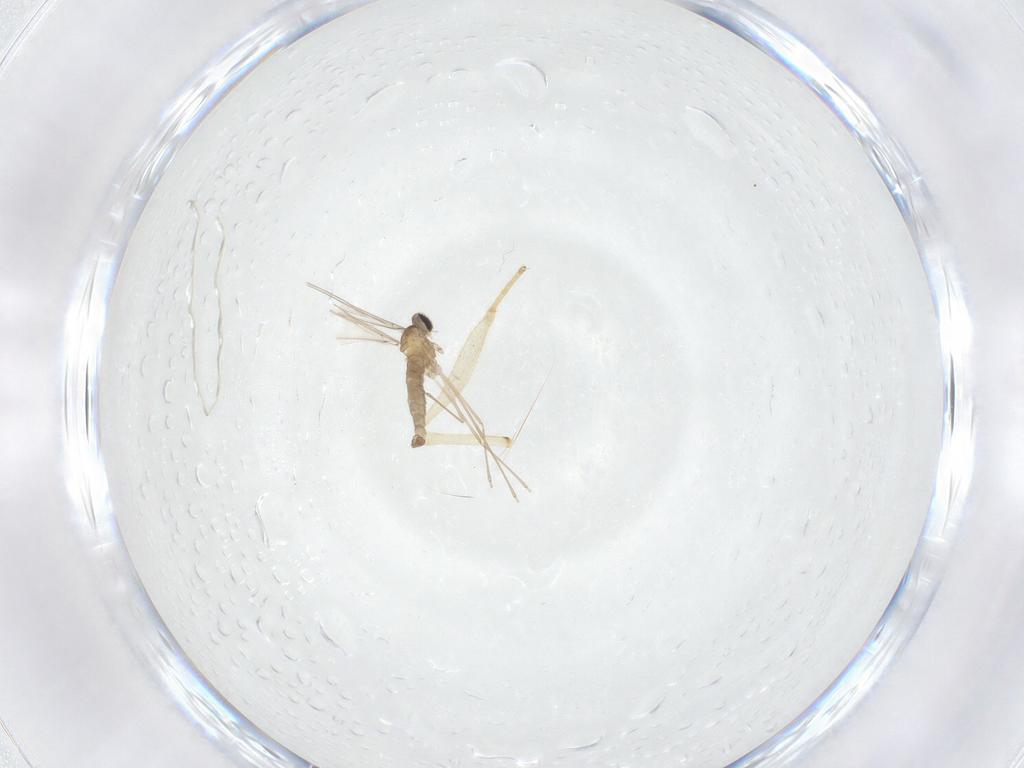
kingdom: Animalia
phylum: Arthropoda
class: Insecta
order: Diptera
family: Cecidomyiidae
